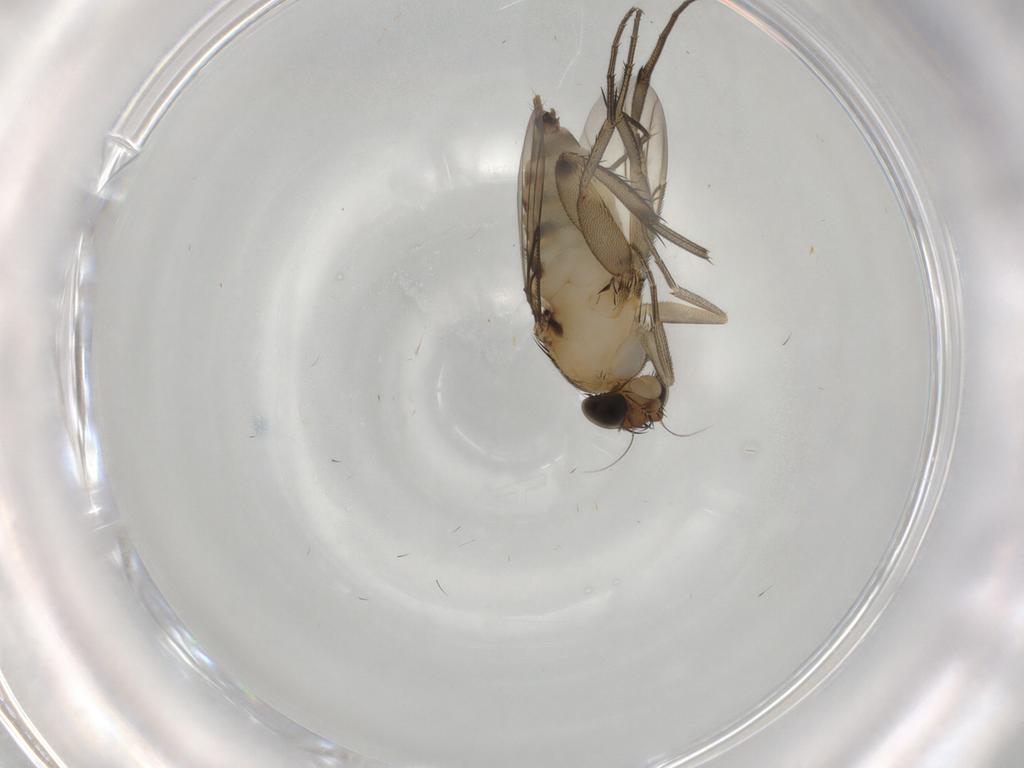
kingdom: Animalia
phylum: Arthropoda
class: Insecta
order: Diptera
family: Phoridae
